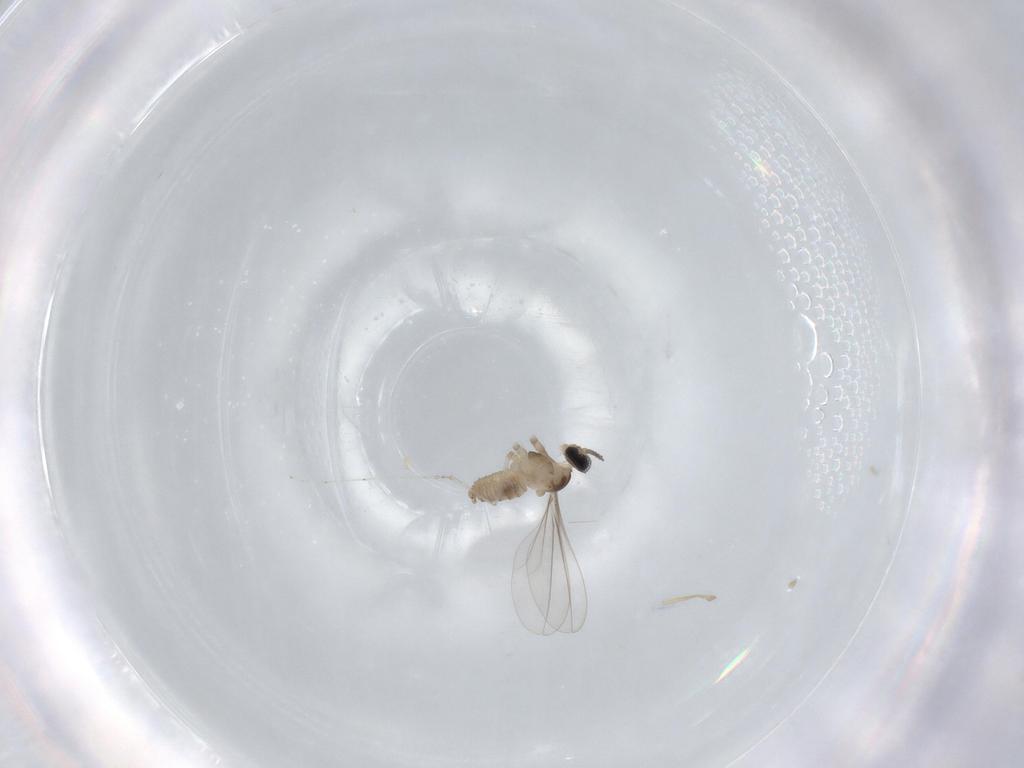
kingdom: Animalia
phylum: Arthropoda
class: Insecta
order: Diptera
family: Cecidomyiidae
